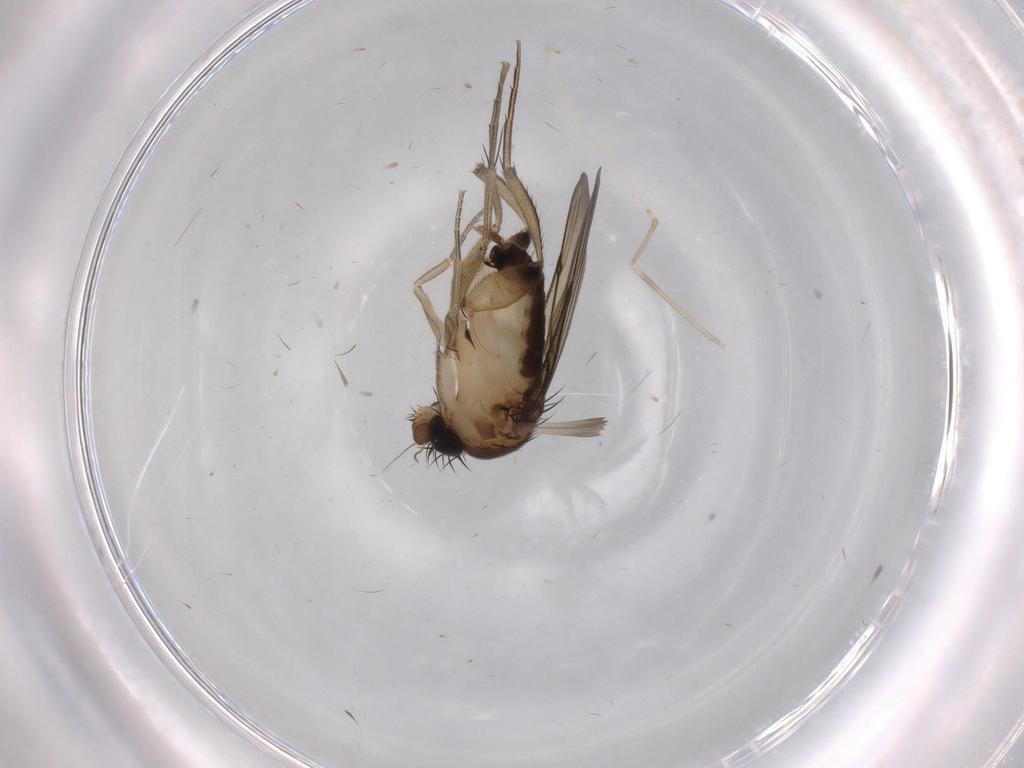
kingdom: Animalia
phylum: Arthropoda
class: Insecta
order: Diptera
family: Cecidomyiidae
